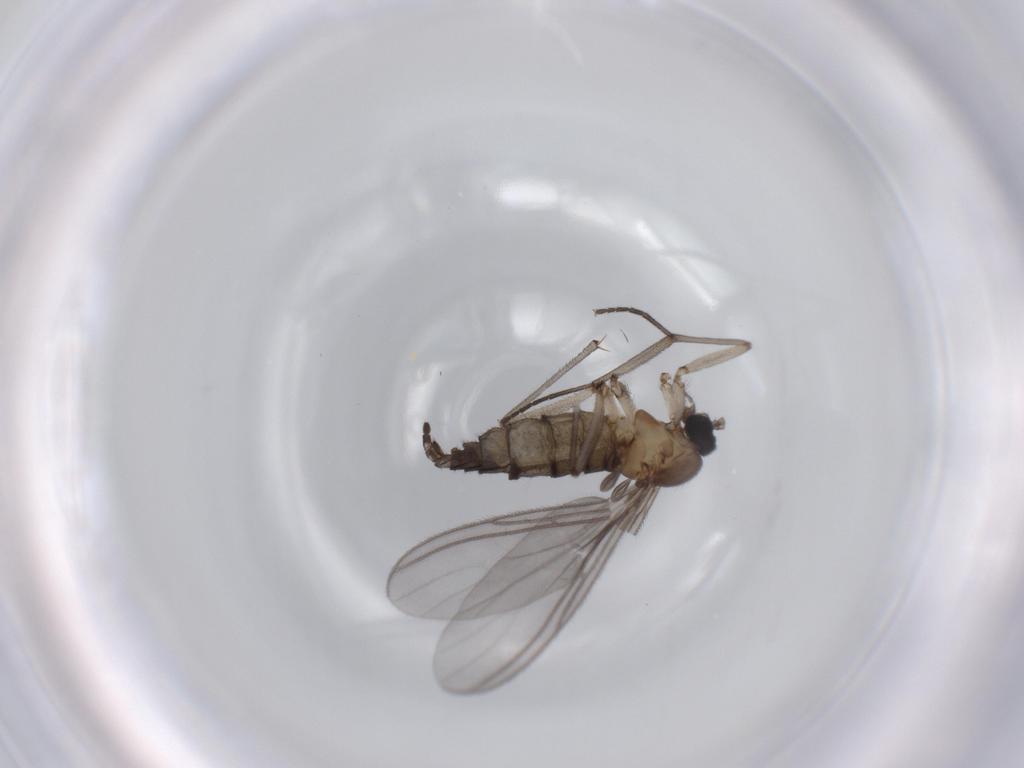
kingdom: Animalia
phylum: Arthropoda
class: Insecta
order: Diptera
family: Sciaridae
